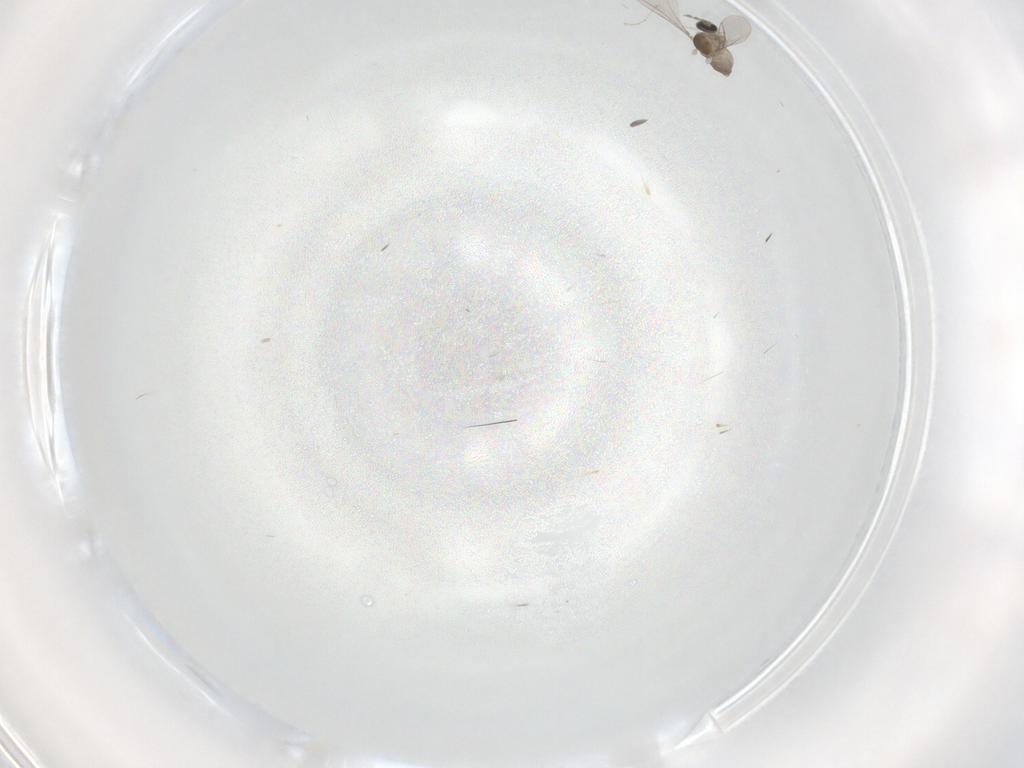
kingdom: Animalia
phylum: Arthropoda
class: Insecta
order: Diptera
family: Cecidomyiidae
